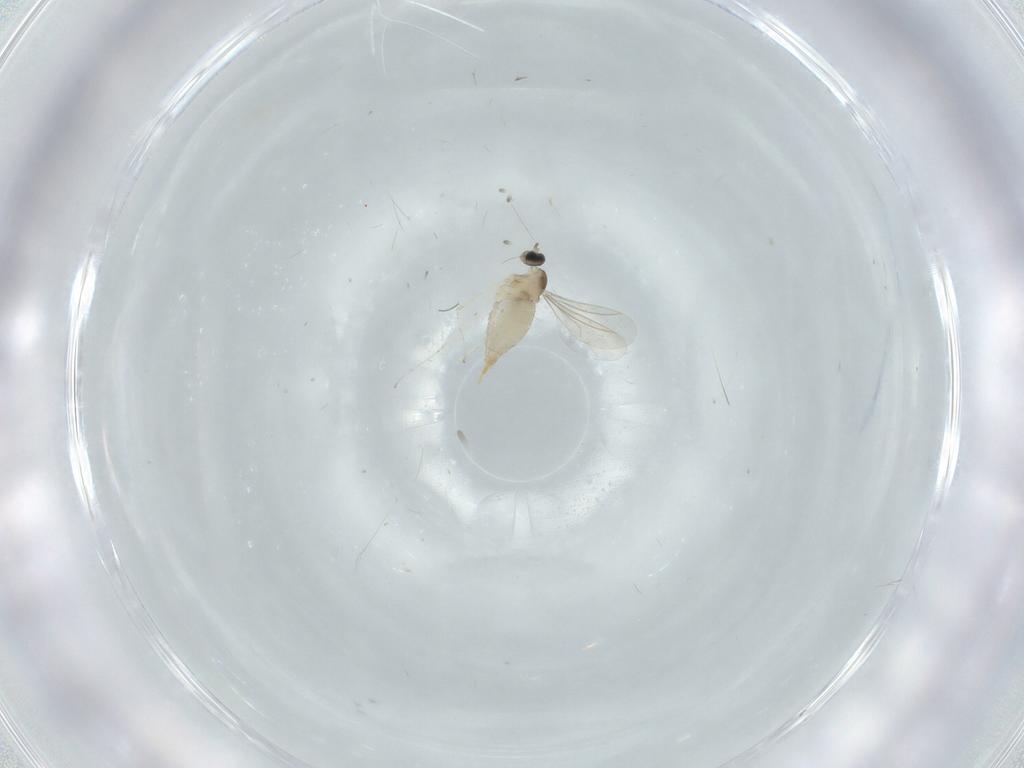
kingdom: Animalia
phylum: Arthropoda
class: Insecta
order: Diptera
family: Cecidomyiidae
